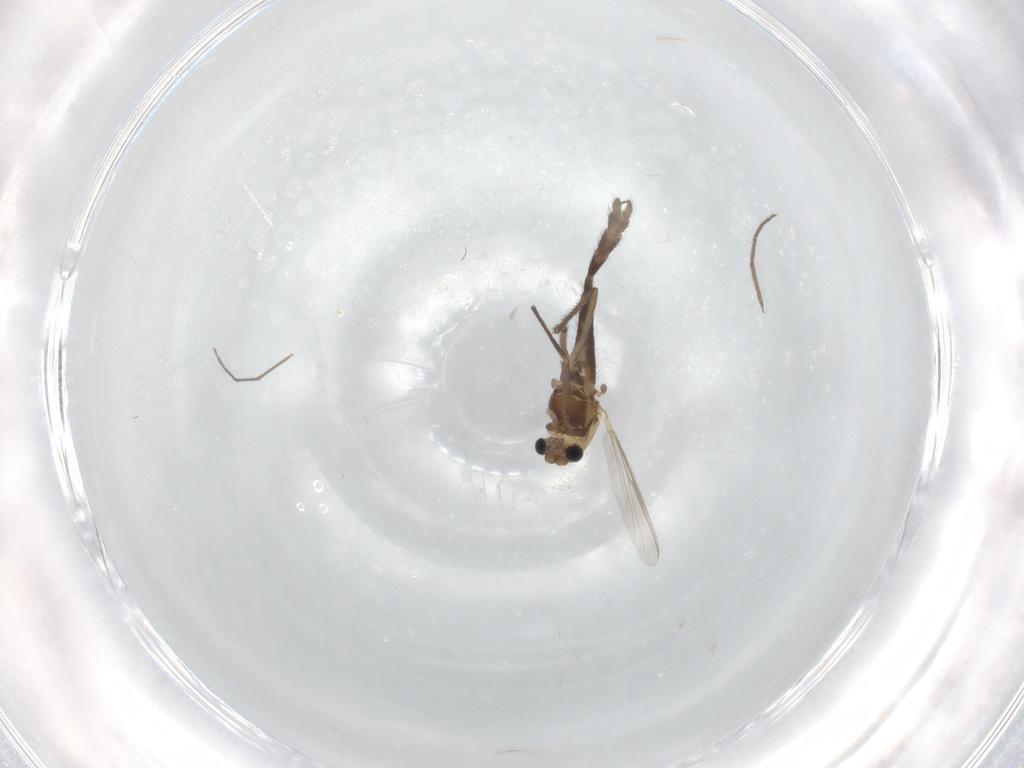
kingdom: Animalia
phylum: Arthropoda
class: Insecta
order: Diptera
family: Chironomidae
